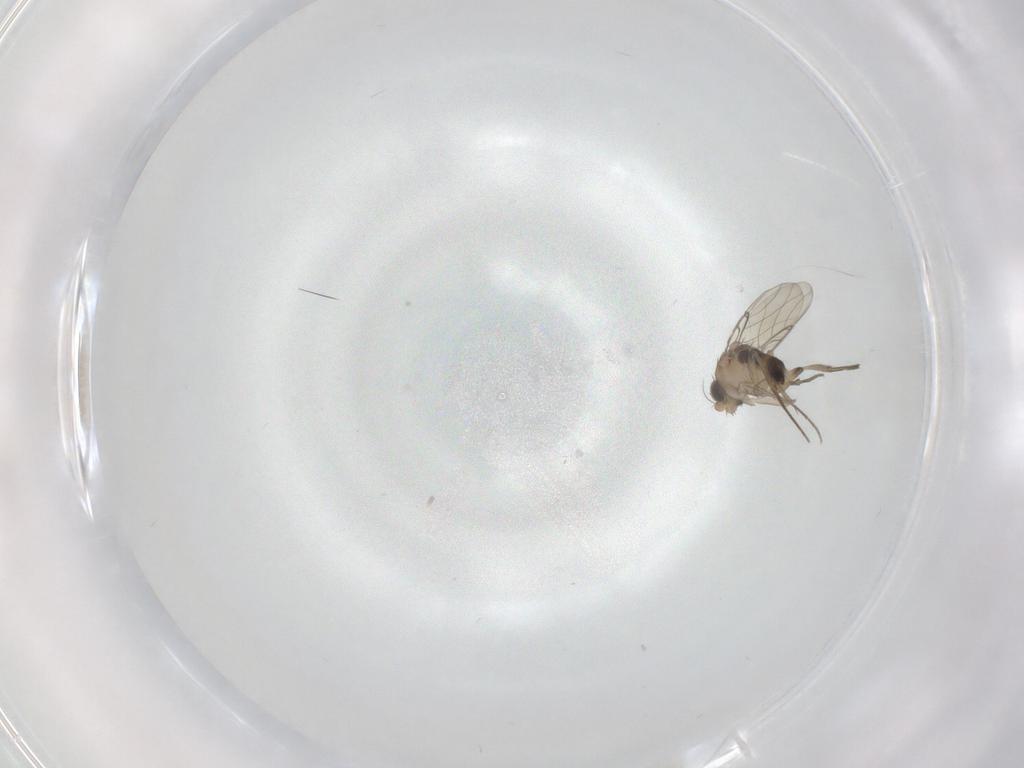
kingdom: Animalia
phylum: Arthropoda
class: Insecta
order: Diptera
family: Phoridae
